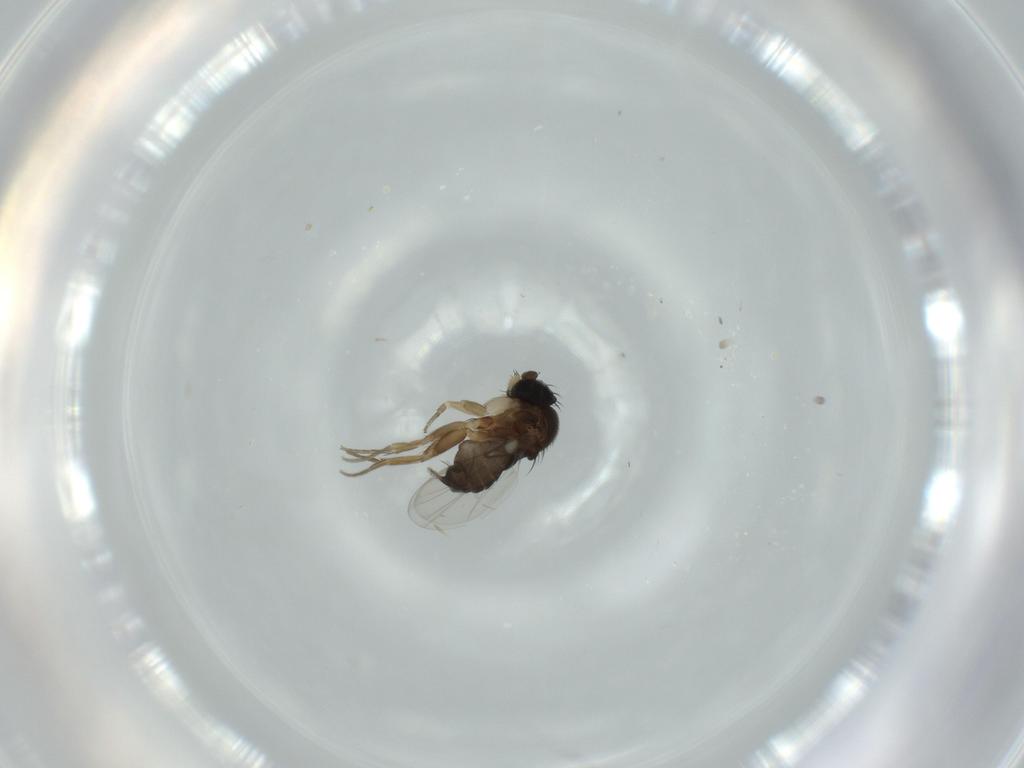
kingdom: Animalia
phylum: Arthropoda
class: Insecta
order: Diptera
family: Phoridae
